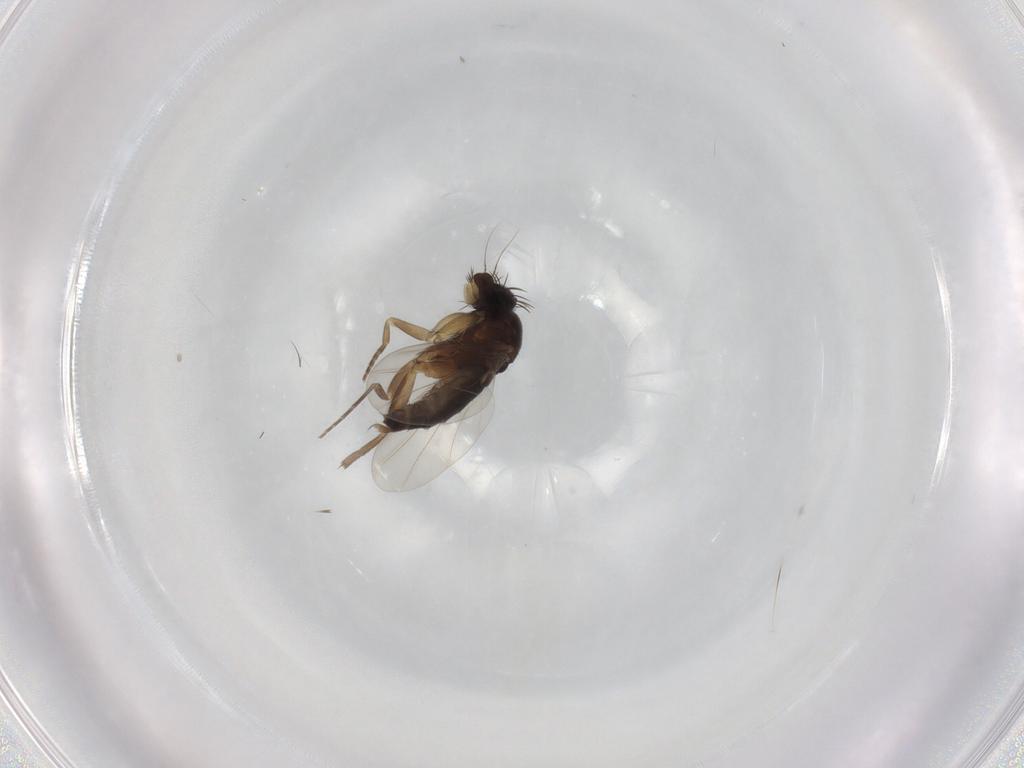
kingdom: Animalia
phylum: Arthropoda
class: Insecta
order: Diptera
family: Phoridae
